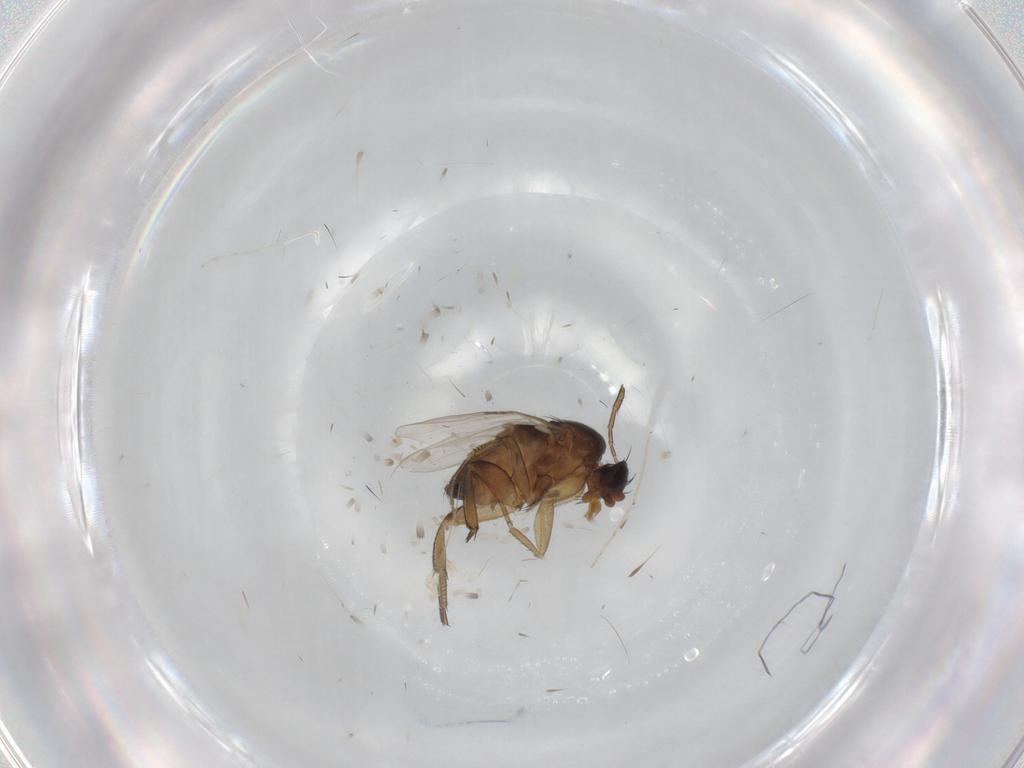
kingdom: Animalia
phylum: Arthropoda
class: Insecta
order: Diptera
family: Phoridae
